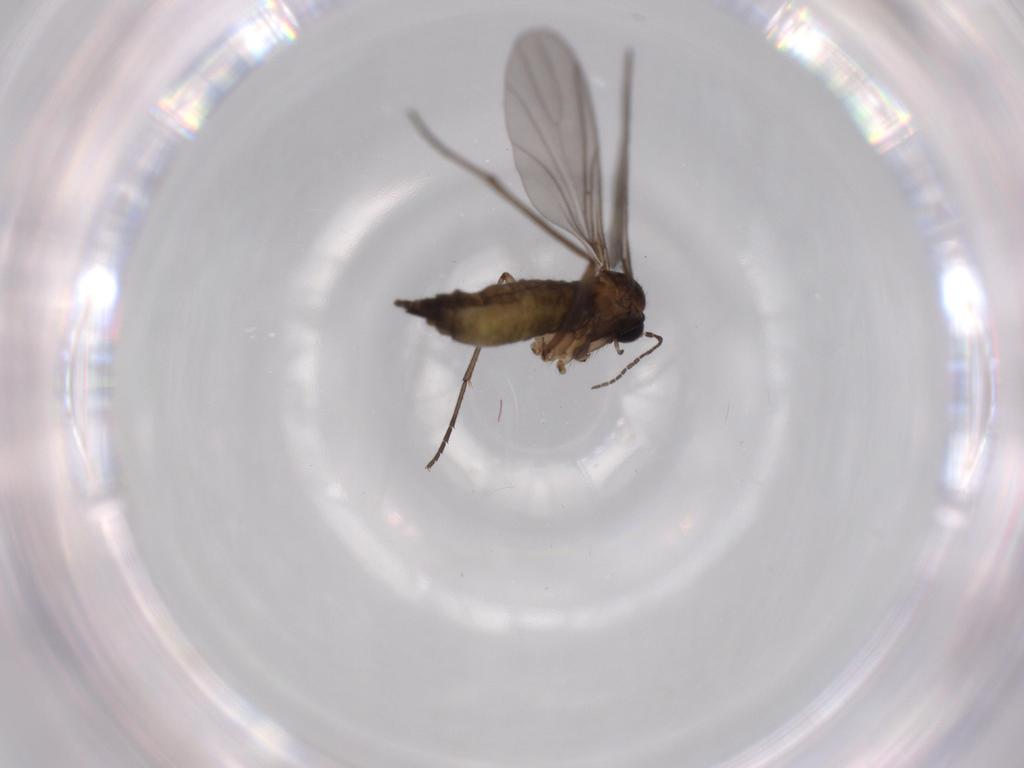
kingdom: Animalia
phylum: Arthropoda
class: Insecta
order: Diptera
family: Sciaridae
